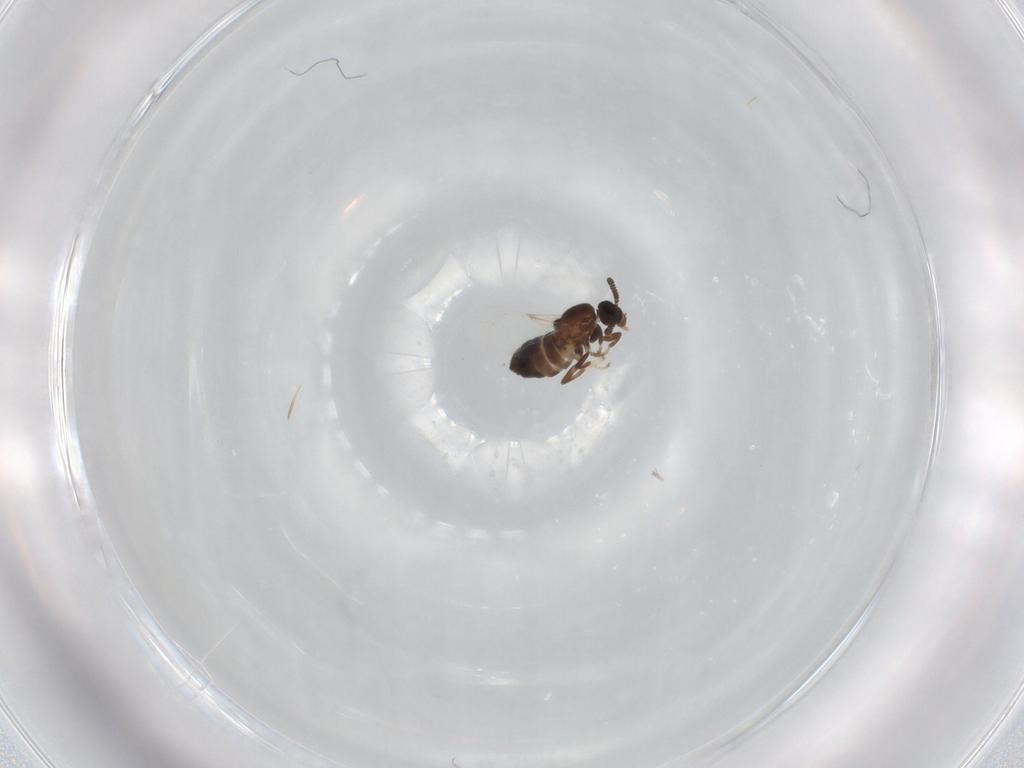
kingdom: Animalia
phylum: Arthropoda
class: Insecta
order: Diptera
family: Scatopsidae
